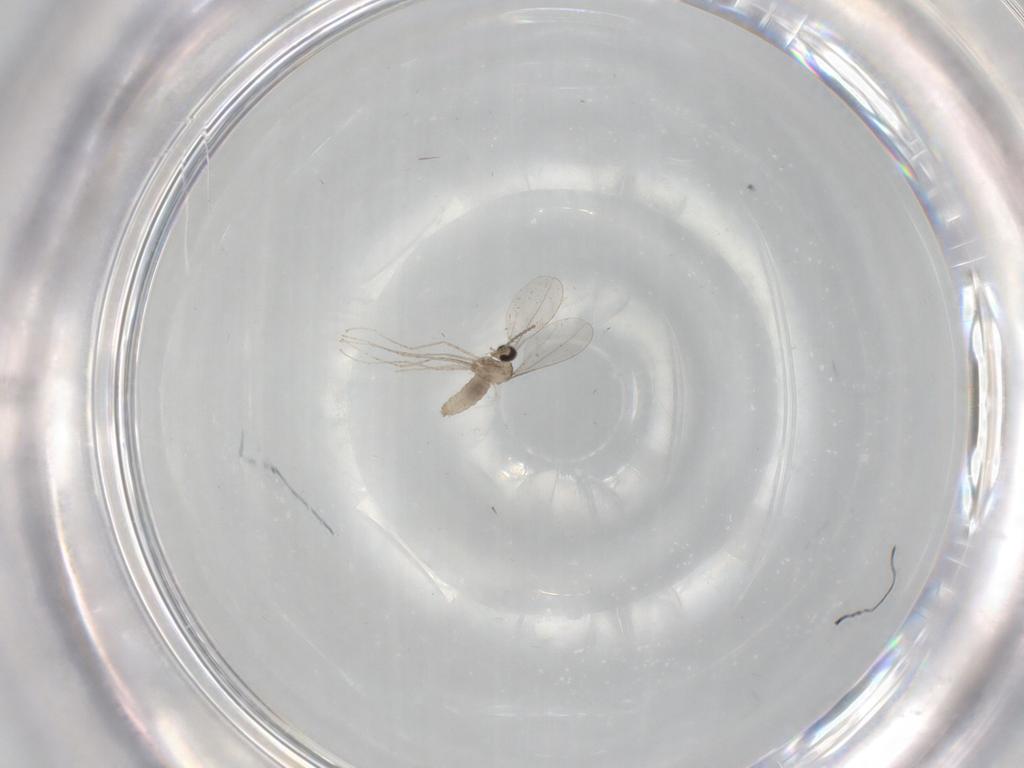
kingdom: Animalia
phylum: Arthropoda
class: Insecta
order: Diptera
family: Cecidomyiidae
